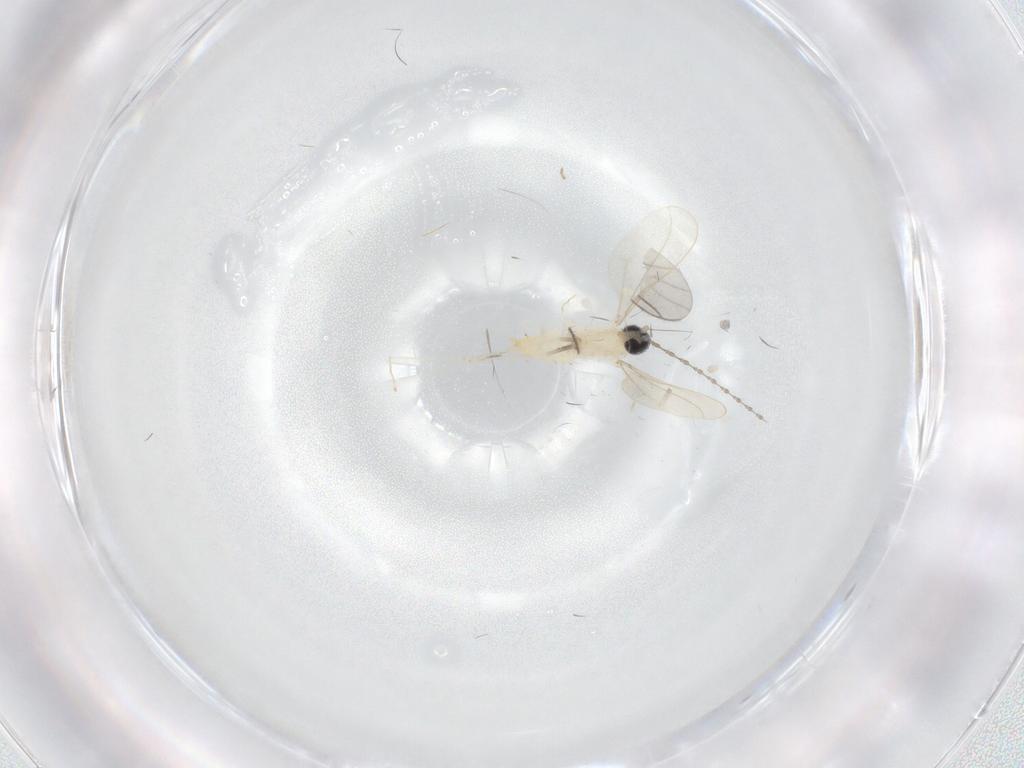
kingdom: Animalia
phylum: Arthropoda
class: Insecta
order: Diptera
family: Chironomidae
